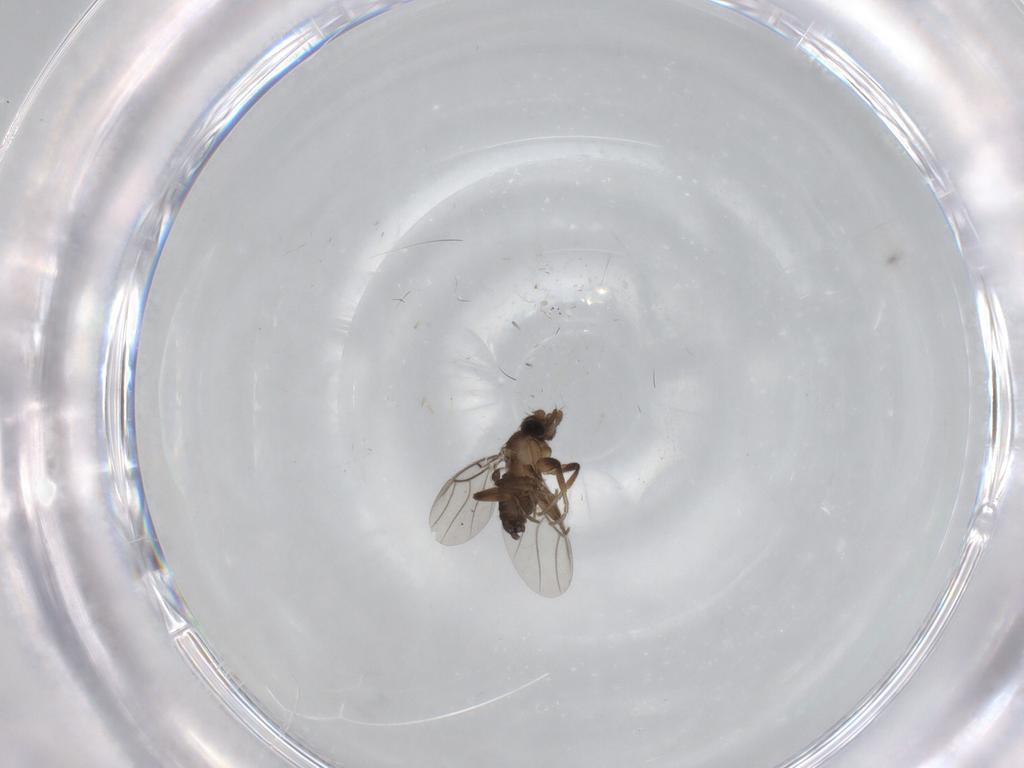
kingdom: Animalia
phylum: Arthropoda
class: Insecta
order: Diptera
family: Phoridae
